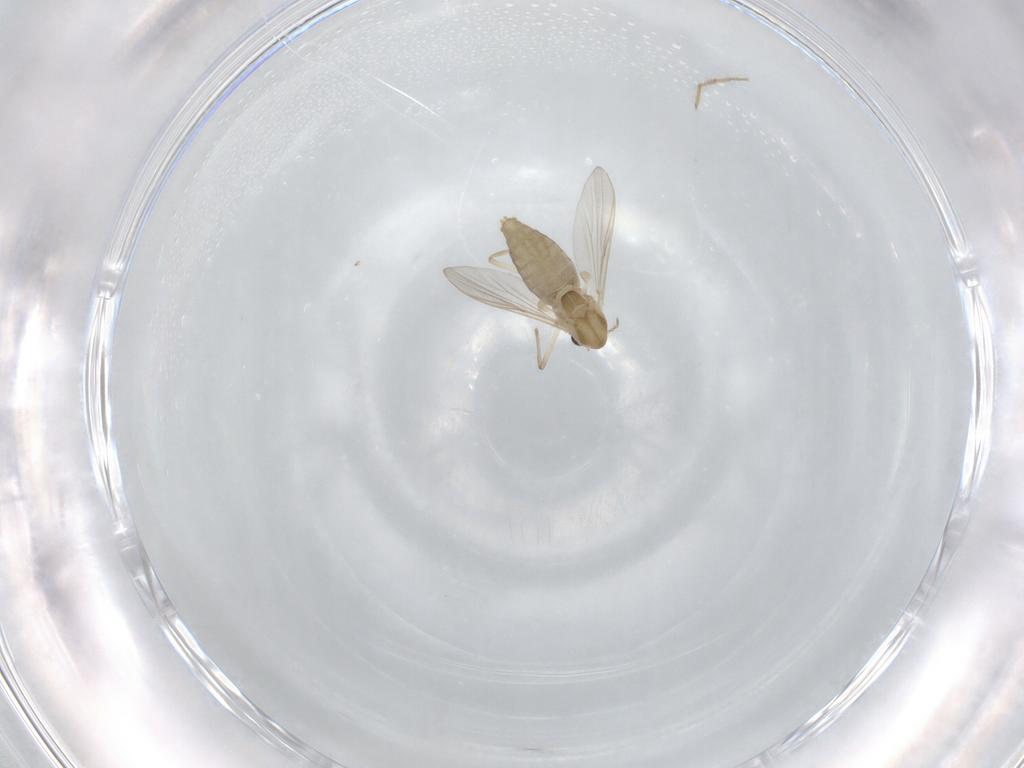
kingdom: Animalia
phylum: Arthropoda
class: Insecta
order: Diptera
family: Chironomidae
